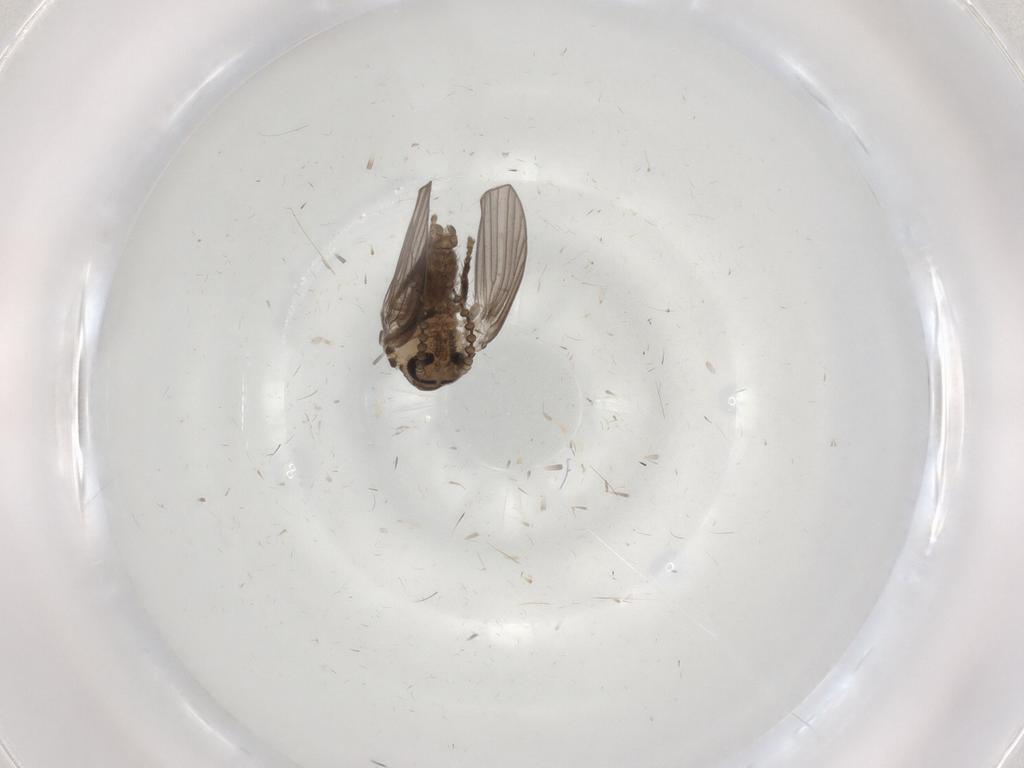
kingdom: Animalia
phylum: Arthropoda
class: Insecta
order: Diptera
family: Psychodidae
